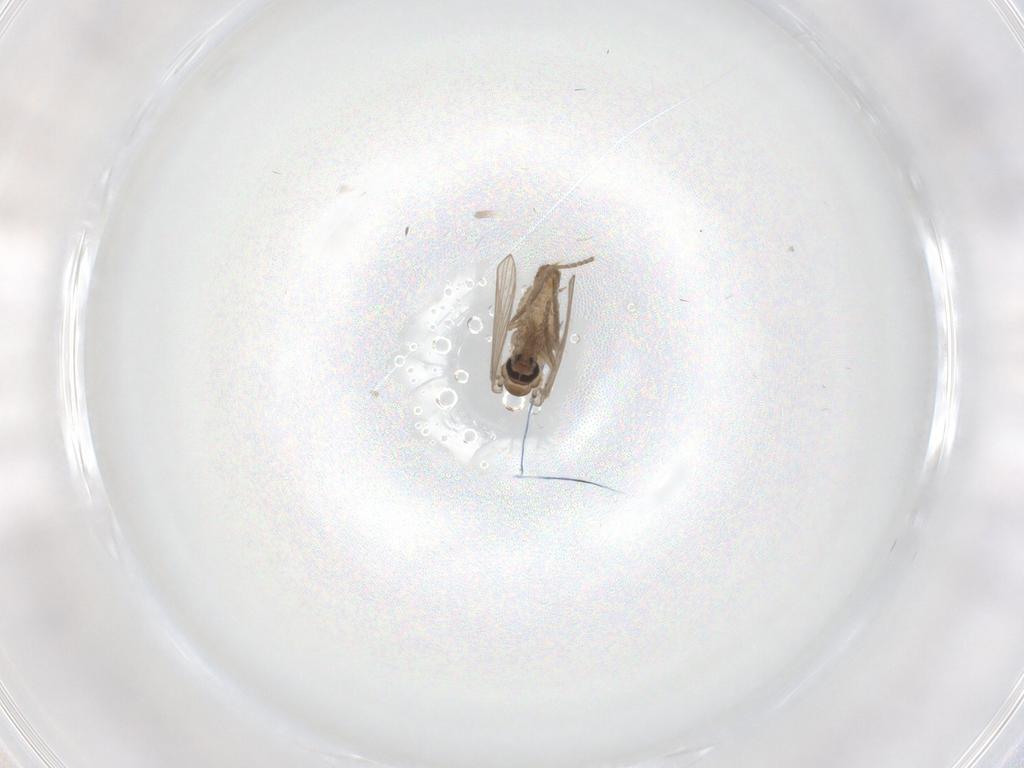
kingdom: Animalia
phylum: Arthropoda
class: Insecta
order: Diptera
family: Psychodidae
